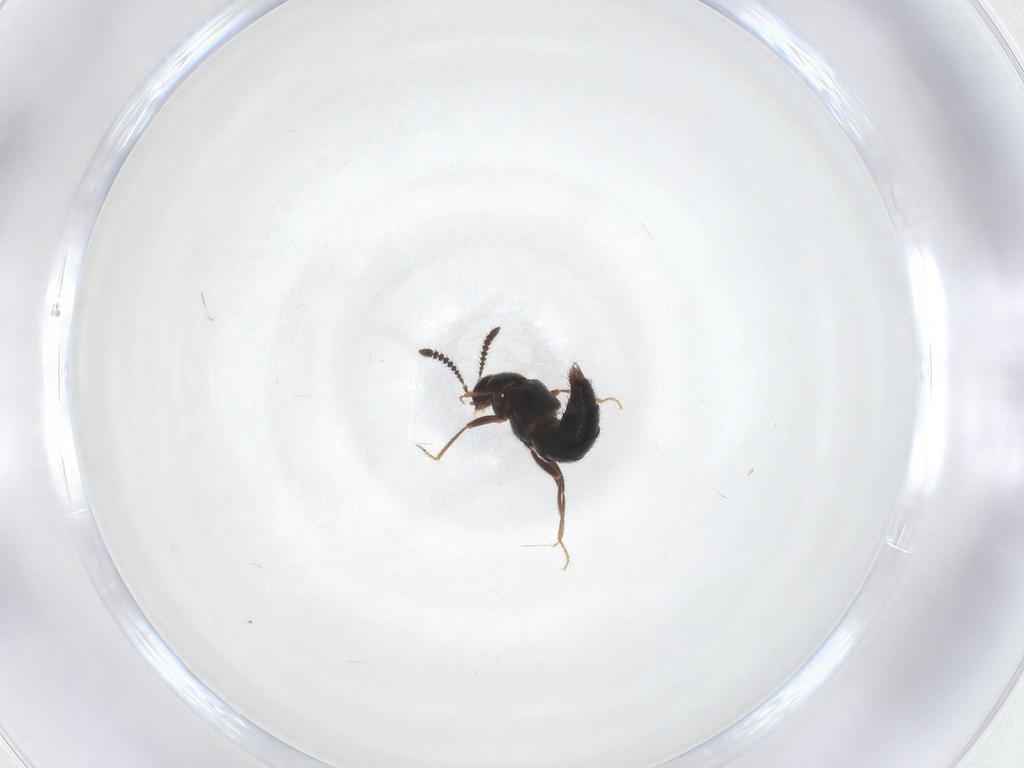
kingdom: Animalia
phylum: Arthropoda
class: Insecta
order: Coleoptera
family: Staphylinidae
